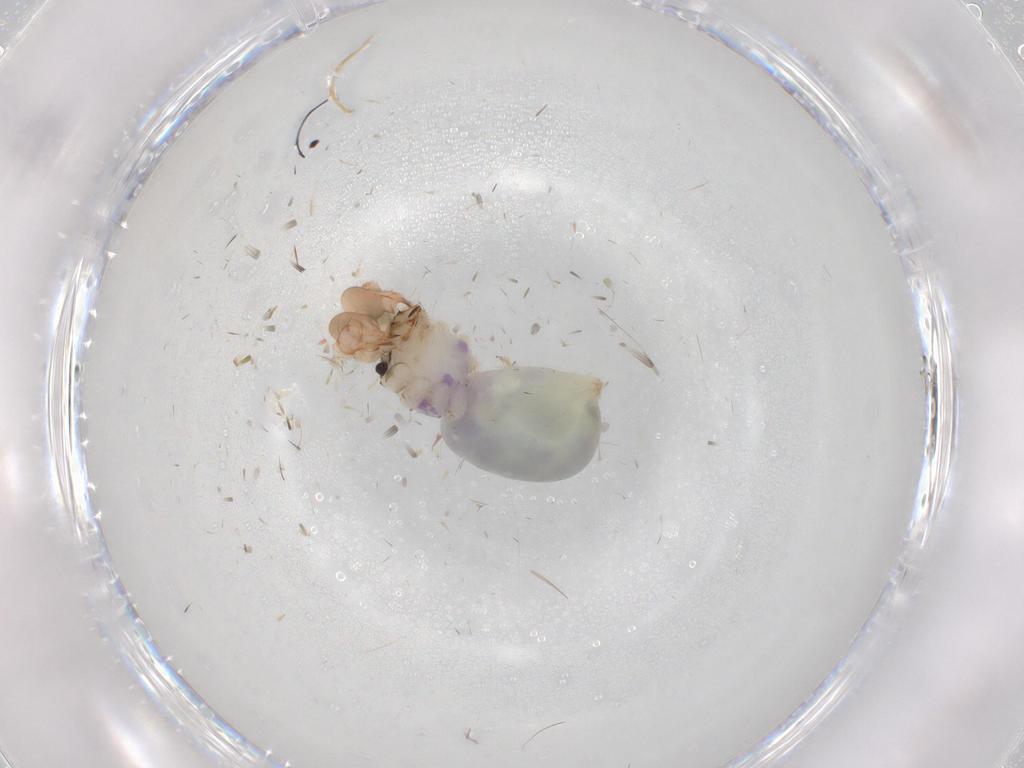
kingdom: Animalia
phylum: Arthropoda
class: Arachnida
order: Araneae
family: Pholcidae
